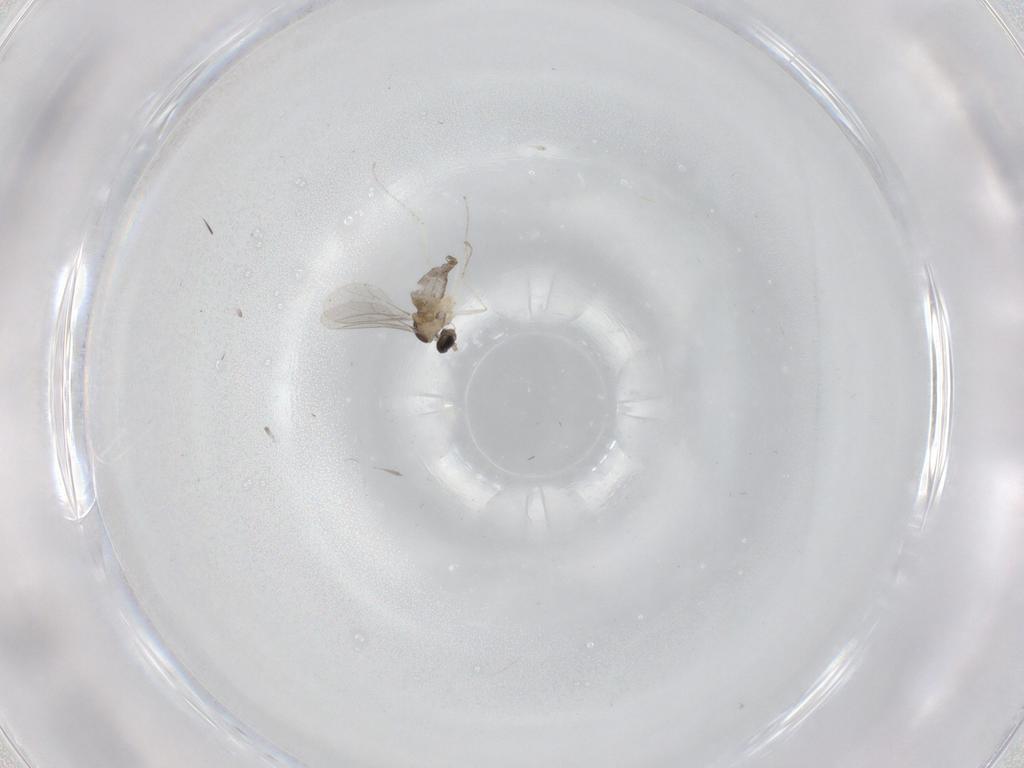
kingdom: Animalia
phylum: Arthropoda
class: Insecta
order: Diptera
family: Cecidomyiidae
